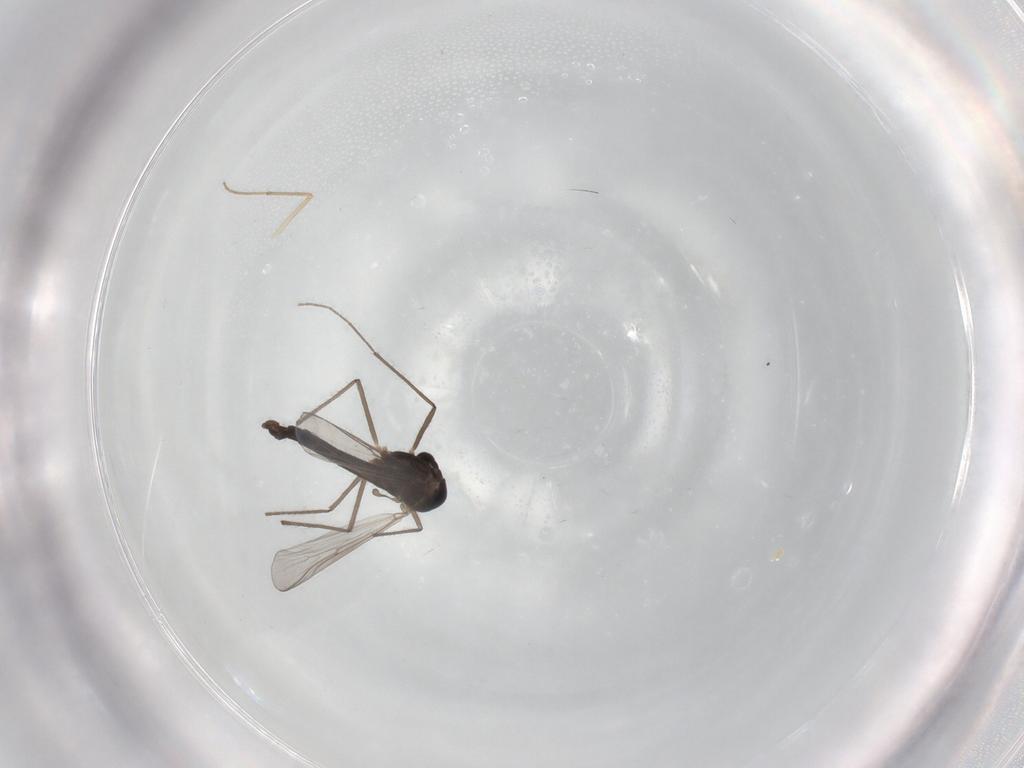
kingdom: Animalia
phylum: Arthropoda
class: Insecta
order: Diptera
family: Chironomidae
